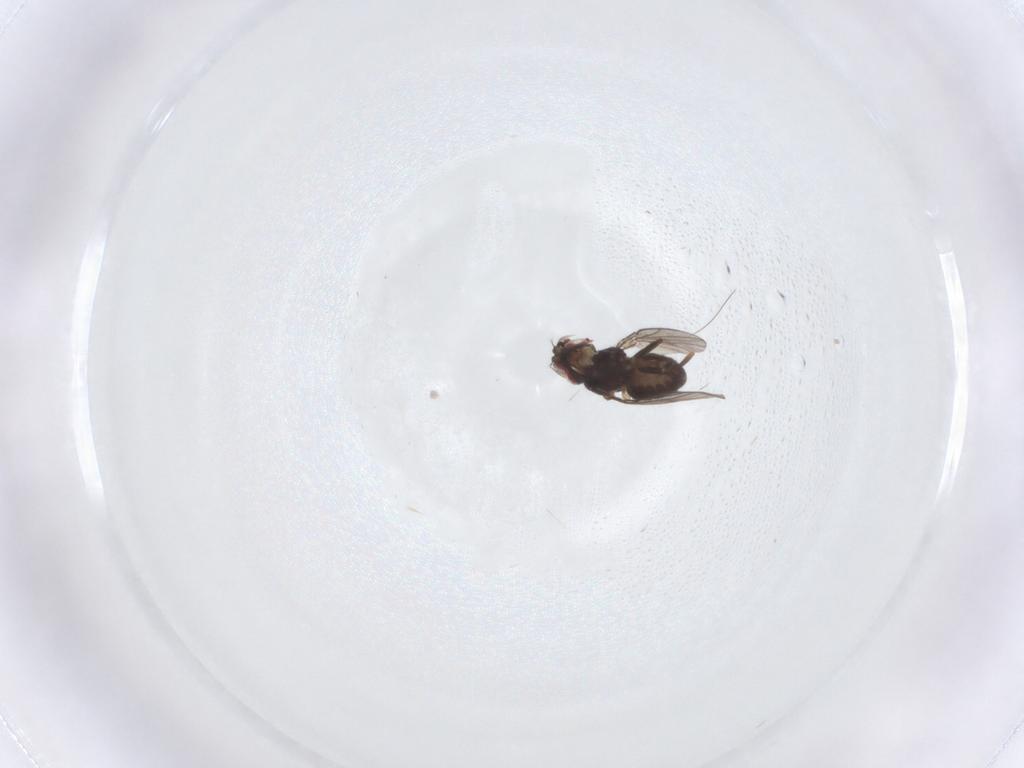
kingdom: Animalia
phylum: Arthropoda
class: Insecta
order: Diptera
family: Ephydridae
